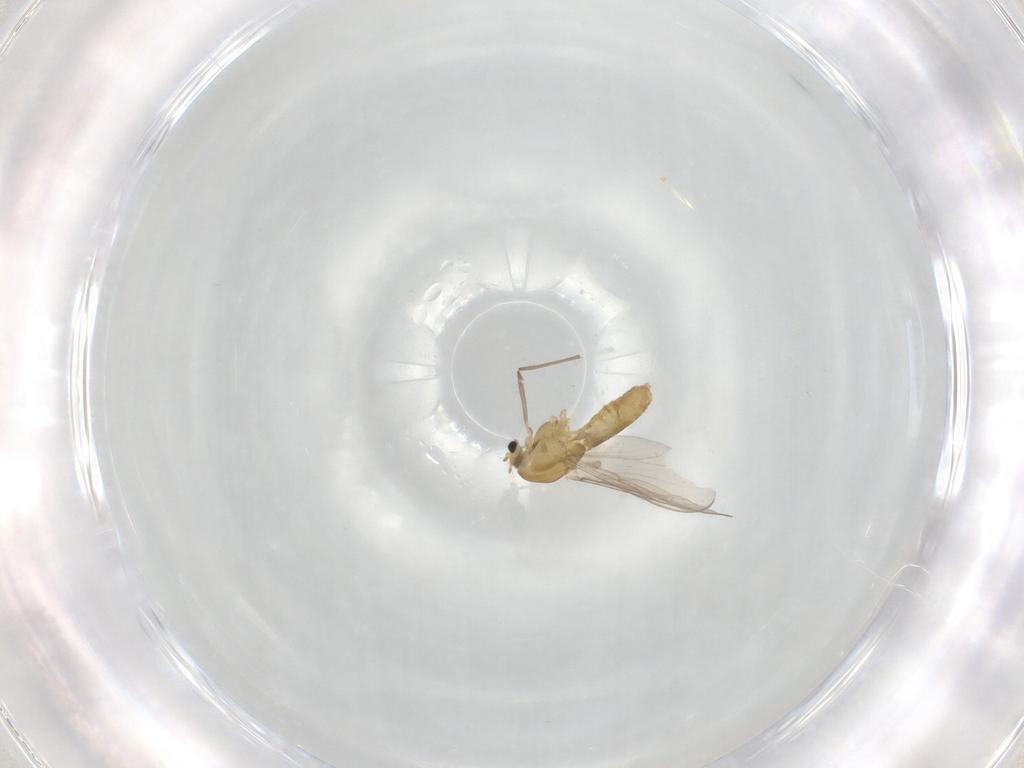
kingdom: Animalia
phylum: Arthropoda
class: Insecta
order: Diptera
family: Chironomidae
